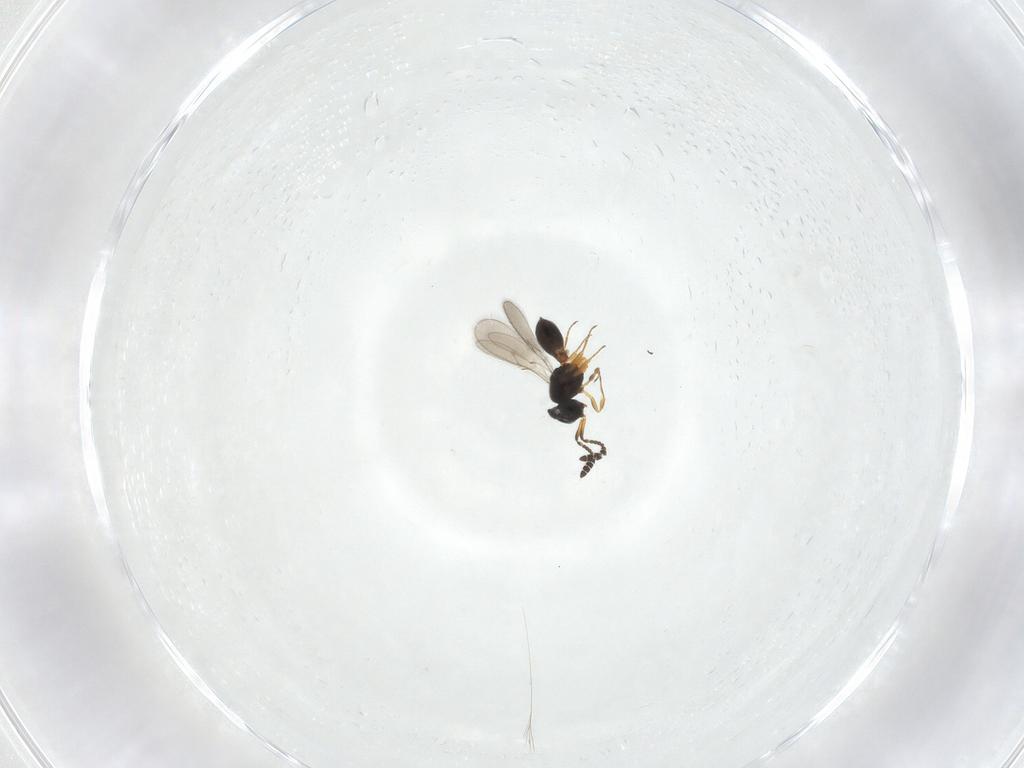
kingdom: Animalia
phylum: Arthropoda
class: Insecta
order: Hymenoptera
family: Scelionidae
